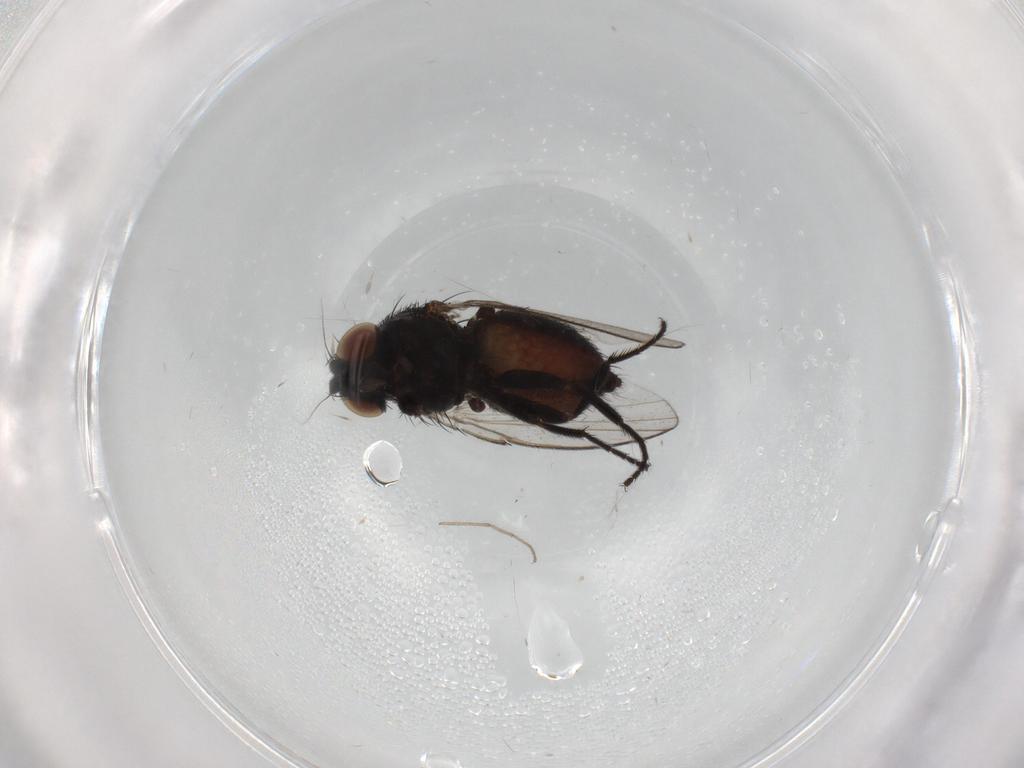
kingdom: Animalia
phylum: Arthropoda
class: Insecta
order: Diptera
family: Milichiidae
